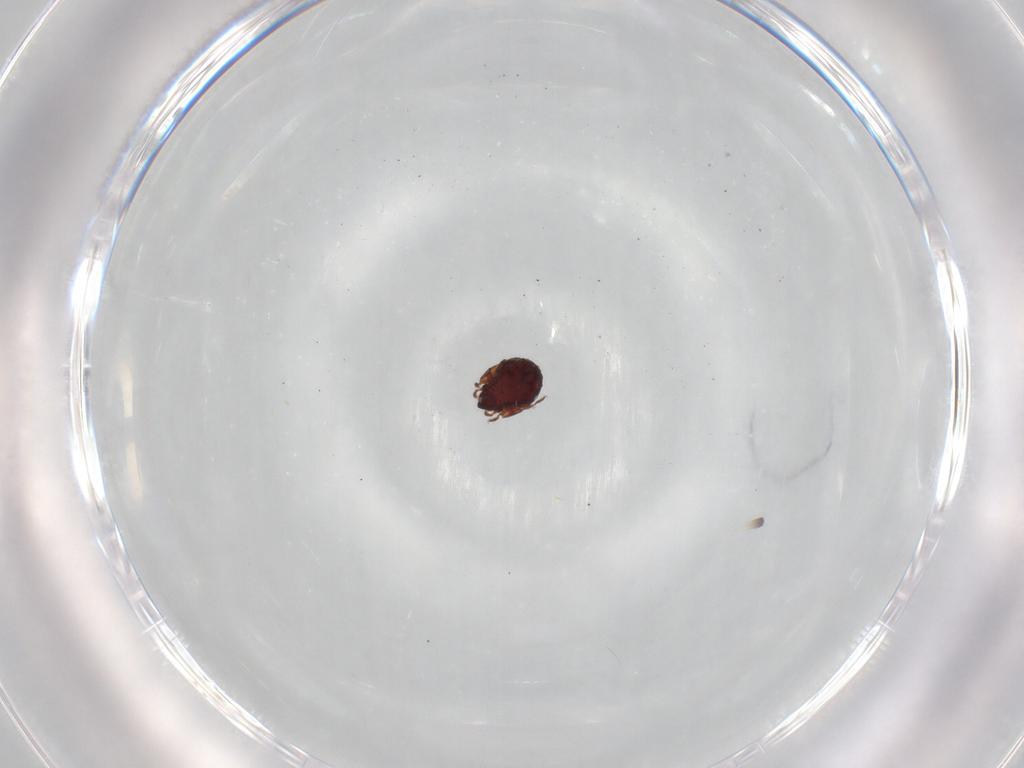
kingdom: Animalia
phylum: Arthropoda
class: Arachnida
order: Sarcoptiformes
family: Humerobatidae
